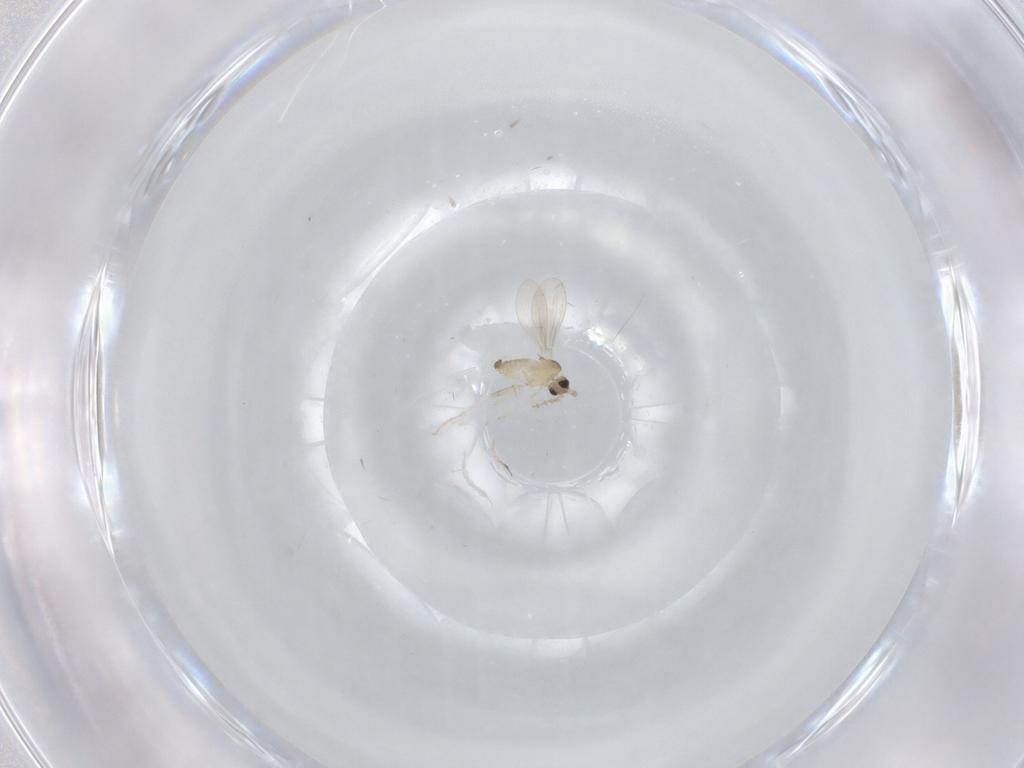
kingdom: Animalia
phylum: Arthropoda
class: Insecta
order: Diptera
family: Cecidomyiidae
